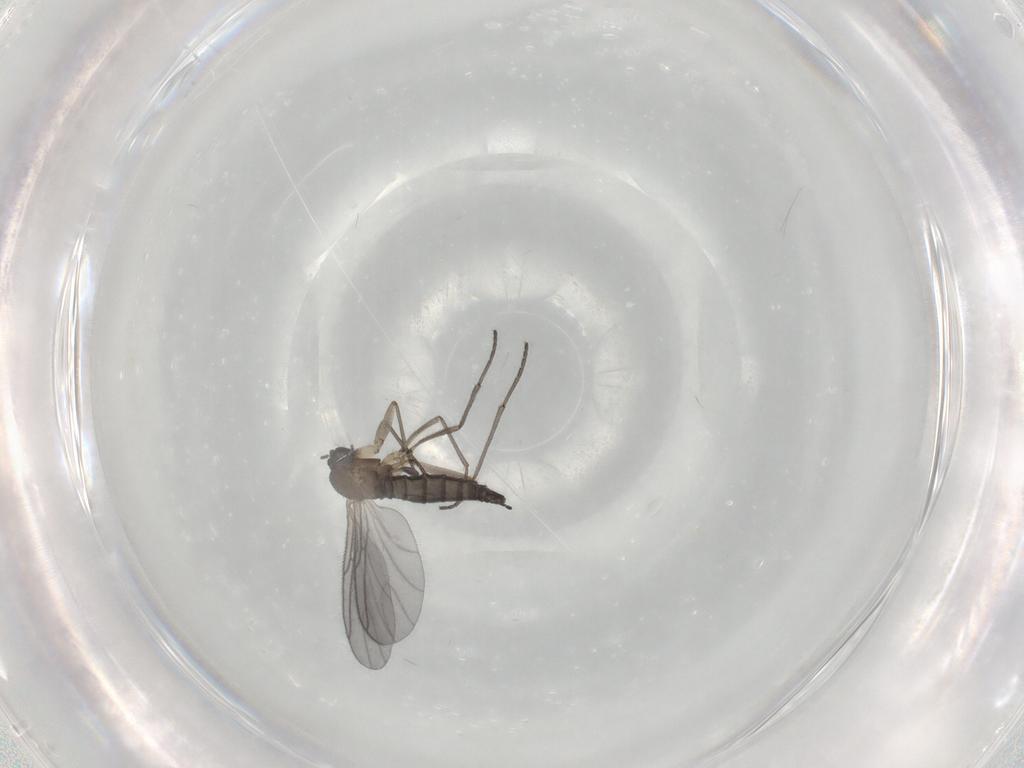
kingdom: Animalia
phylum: Arthropoda
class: Insecta
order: Diptera
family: Sciaridae
